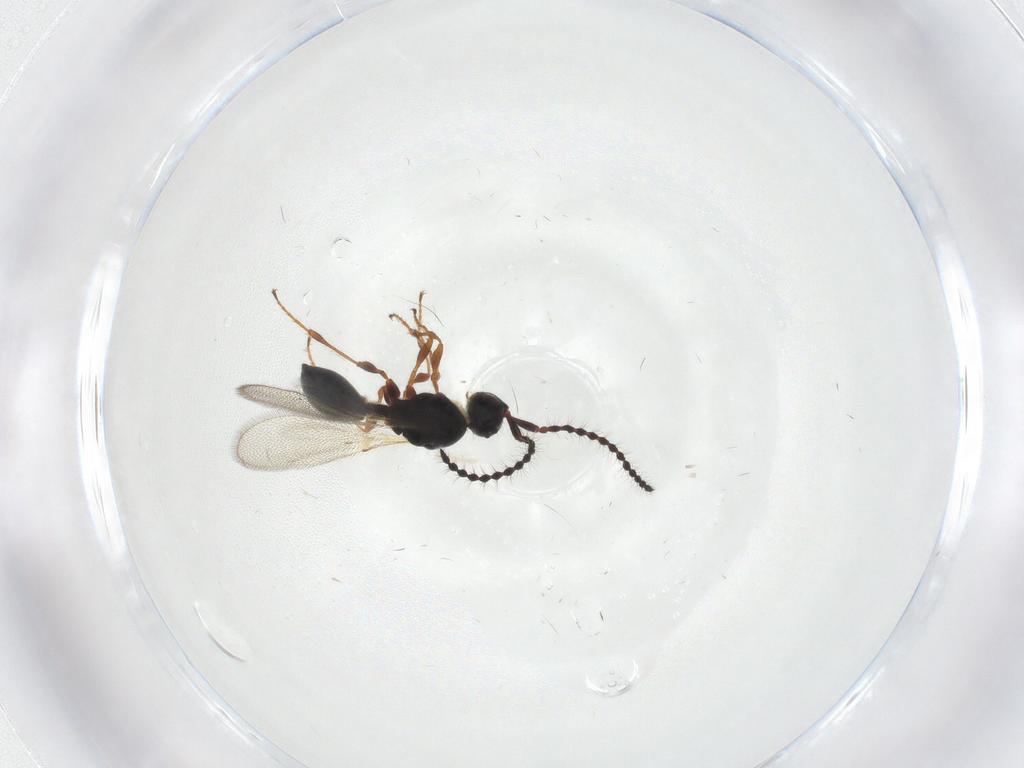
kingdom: Animalia
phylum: Arthropoda
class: Insecta
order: Hymenoptera
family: Diapriidae
